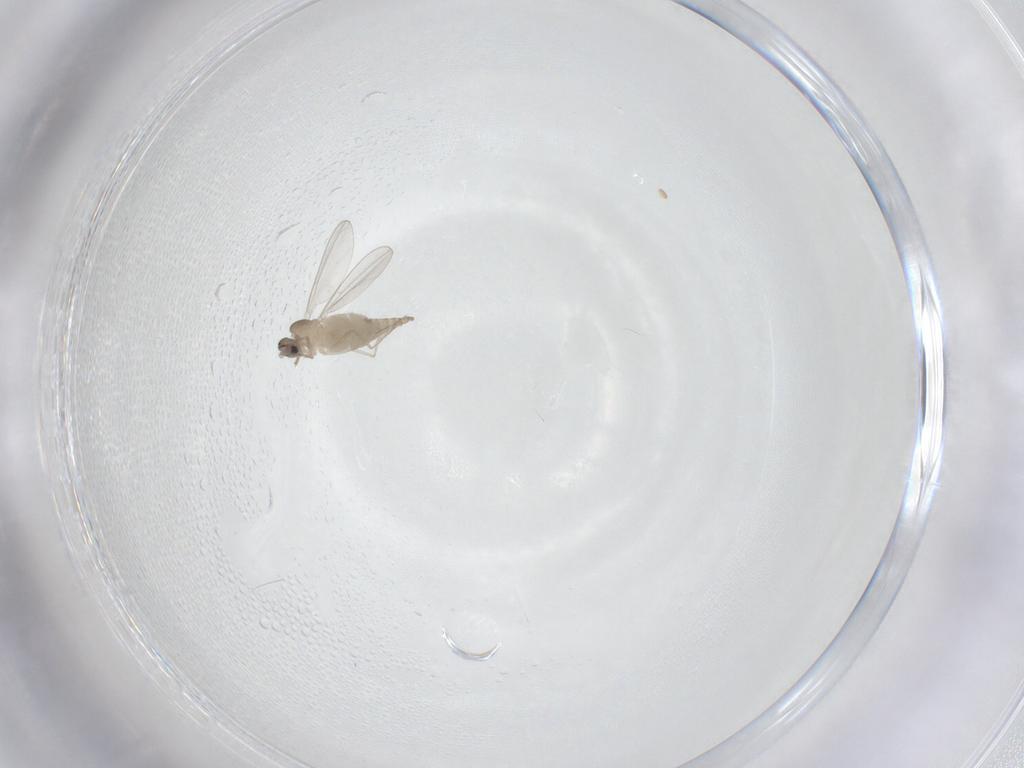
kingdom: Animalia
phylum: Arthropoda
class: Insecta
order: Diptera
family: Cecidomyiidae
